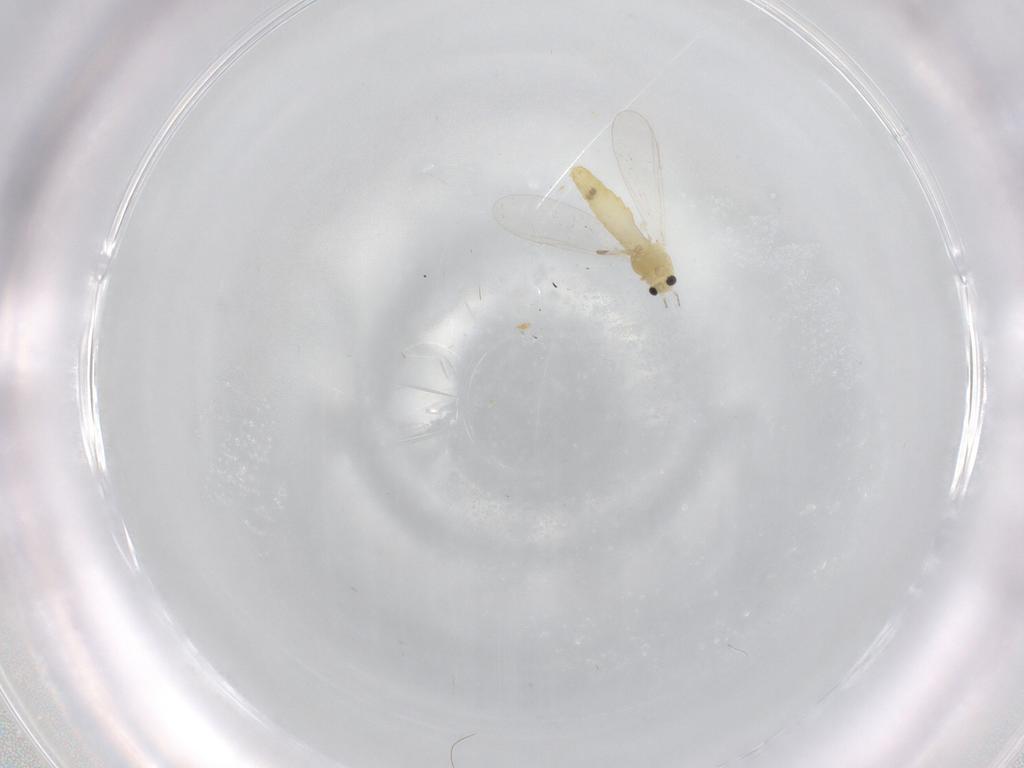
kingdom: Animalia
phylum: Arthropoda
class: Insecta
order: Diptera
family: Chironomidae
